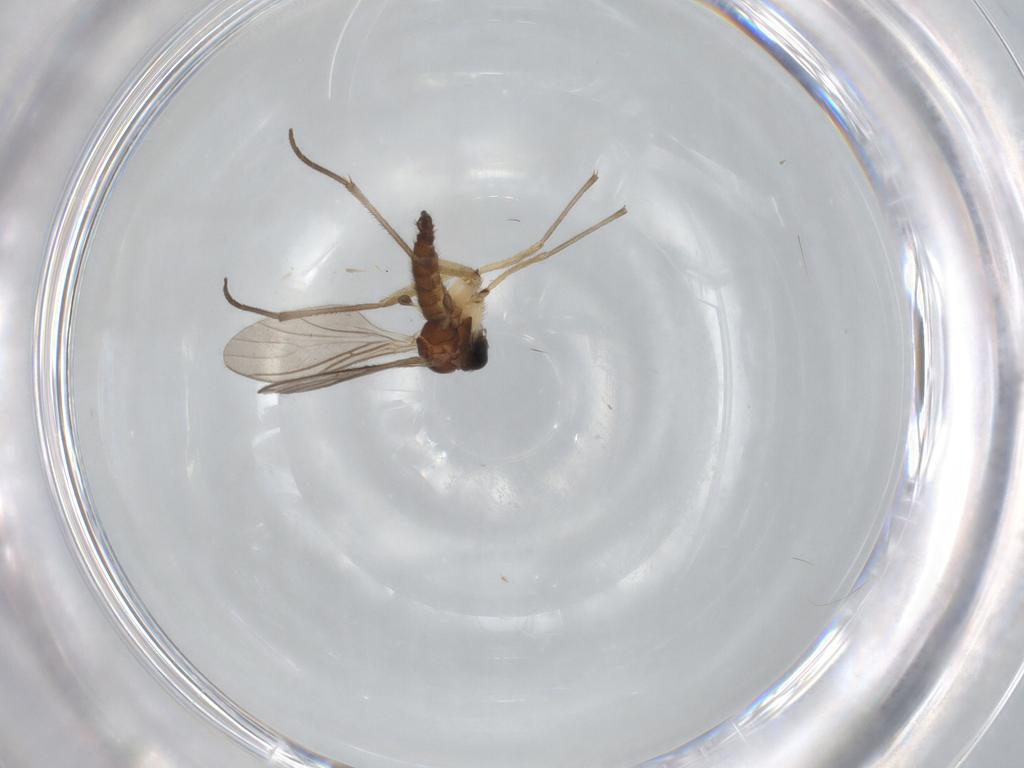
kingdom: Animalia
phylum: Arthropoda
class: Insecta
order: Diptera
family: Sciaridae
